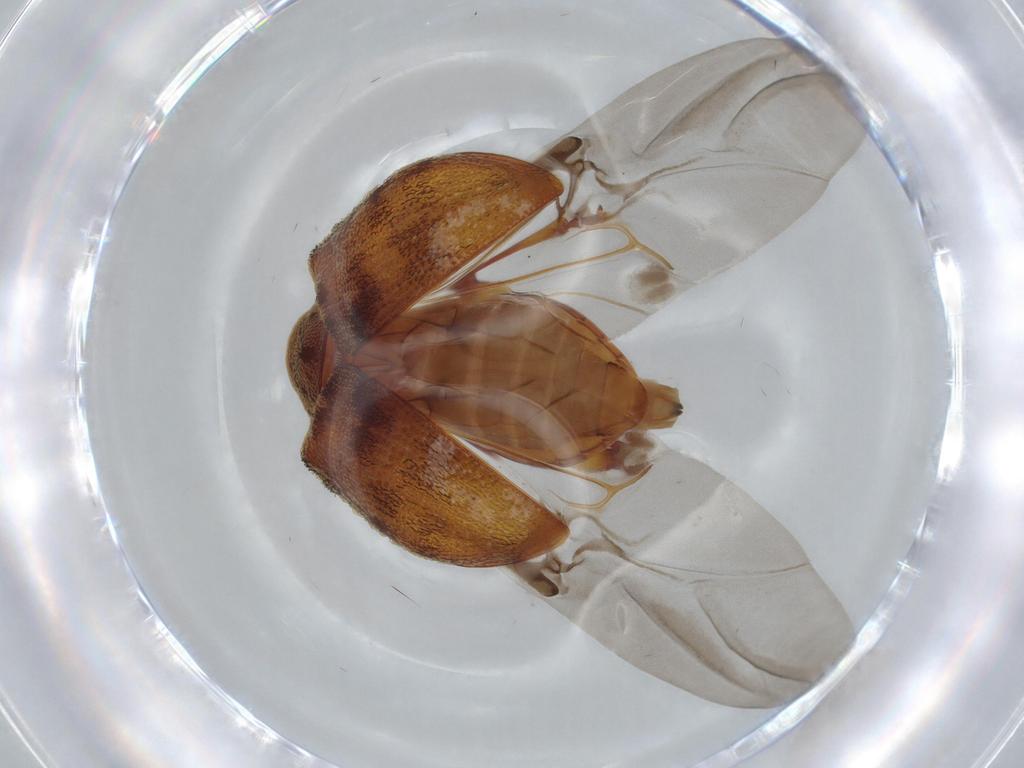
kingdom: Animalia
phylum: Arthropoda
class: Insecta
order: Coleoptera
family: Chrysomelidae
